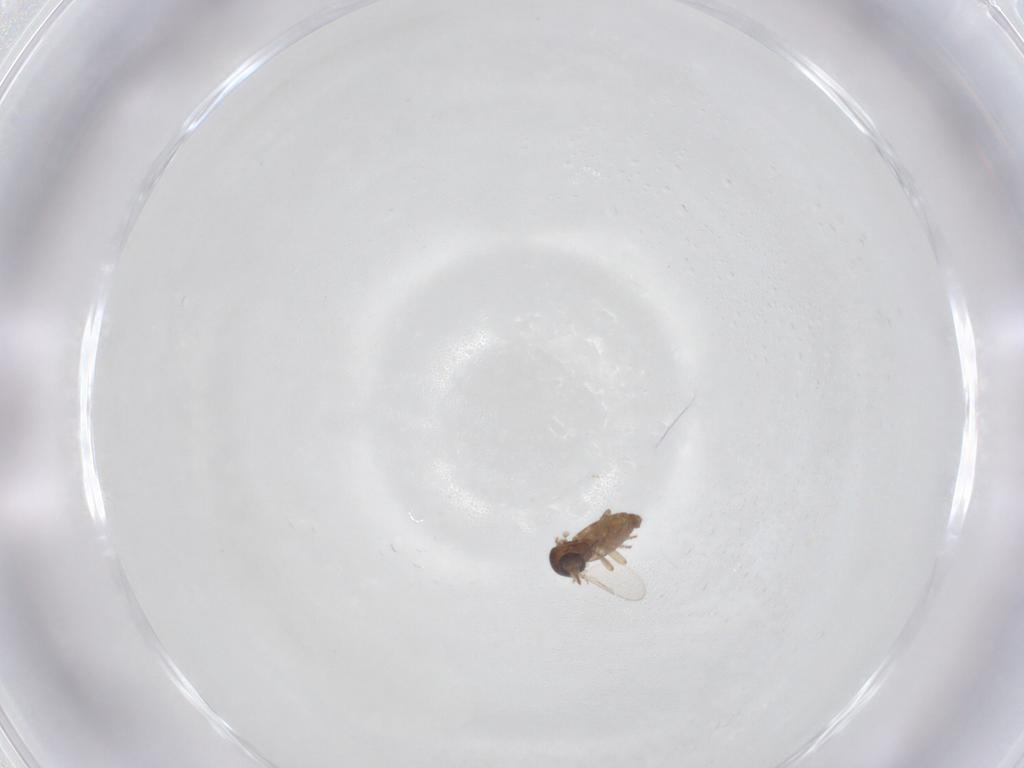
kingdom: Animalia
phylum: Arthropoda
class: Insecta
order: Diptera
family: Ceratopogonidae
